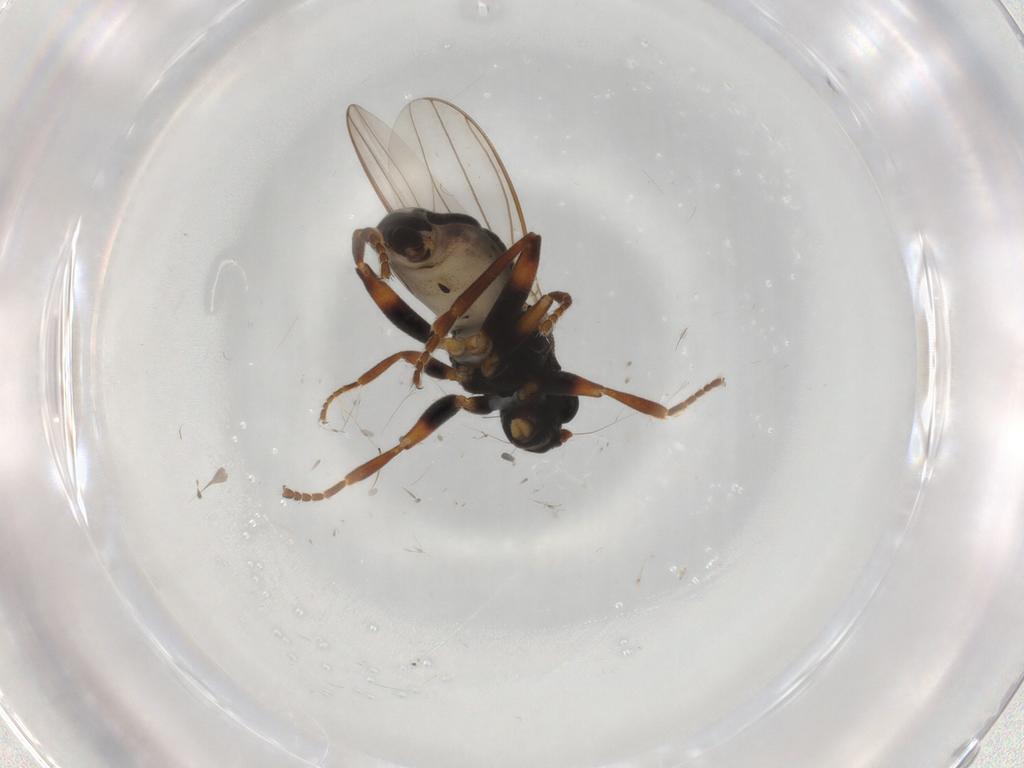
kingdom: Animalia
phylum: Arthropoda
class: Insecta
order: Diptera
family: Sphaeroceridae
